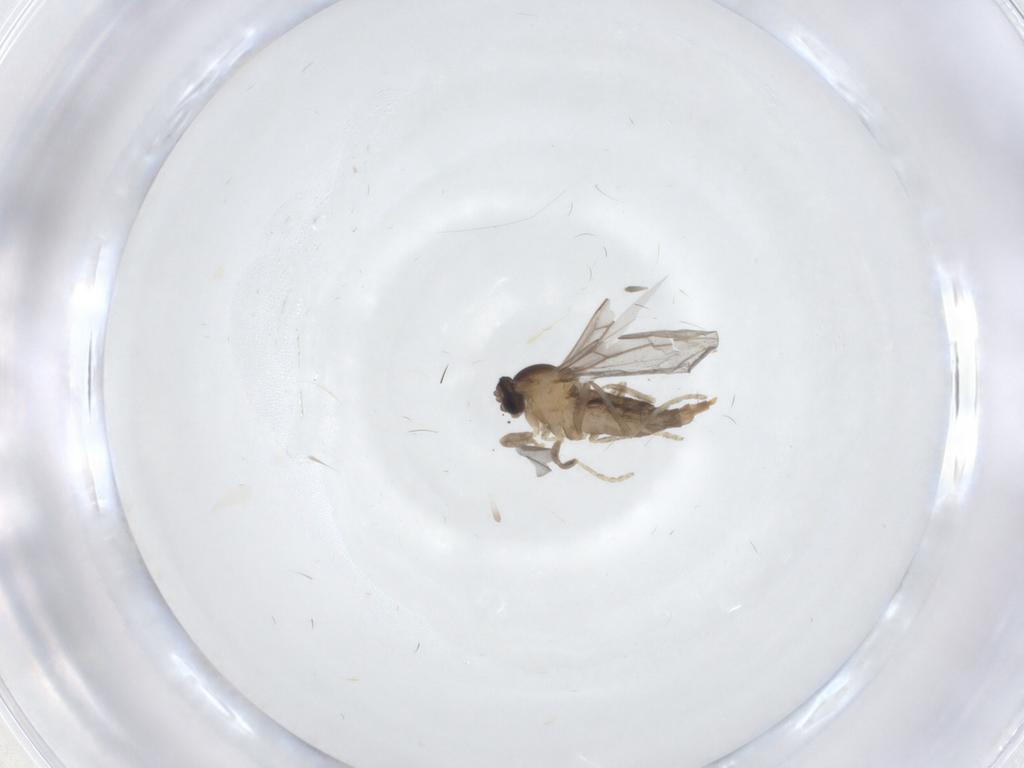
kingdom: Animalia
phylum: Arthropoda
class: Insecta
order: Diptera
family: Cecidomyiidae
